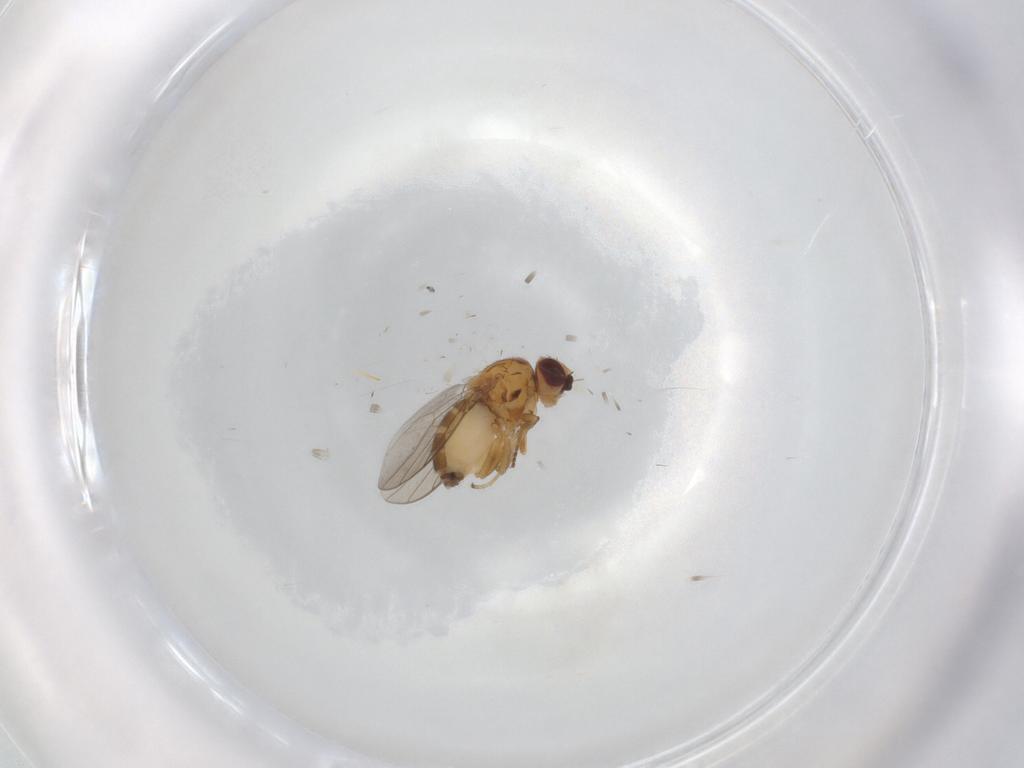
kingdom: Animalia
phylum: Arthropoda
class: Insecta
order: Diptera
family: Chloropidae
